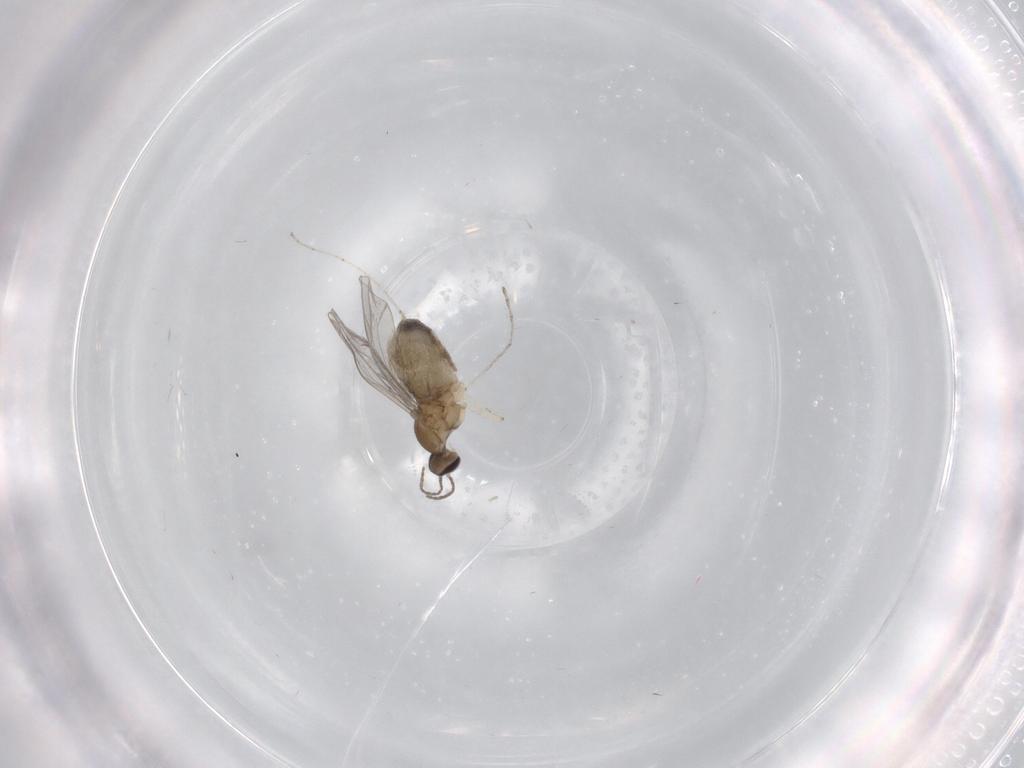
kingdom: Animalia
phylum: Arthropoda
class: Insecta
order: Diptera
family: Cecidomyiidae
